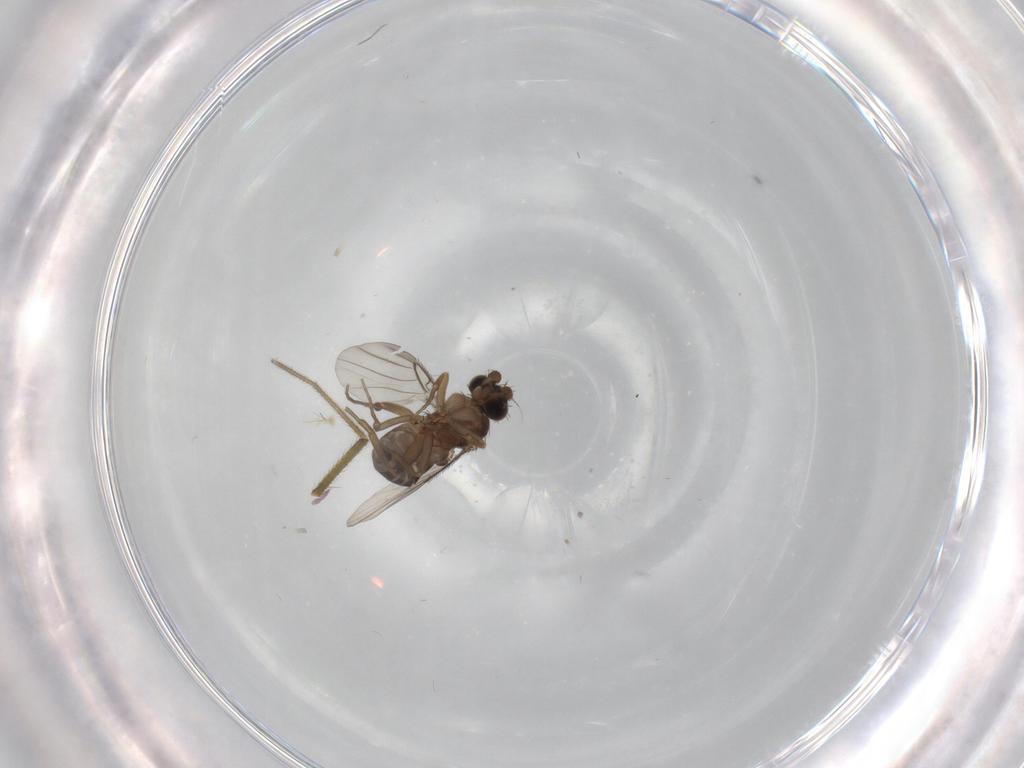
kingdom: Animalia
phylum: Arthropoda
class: Insecta
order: Diptera
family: Phoridae
